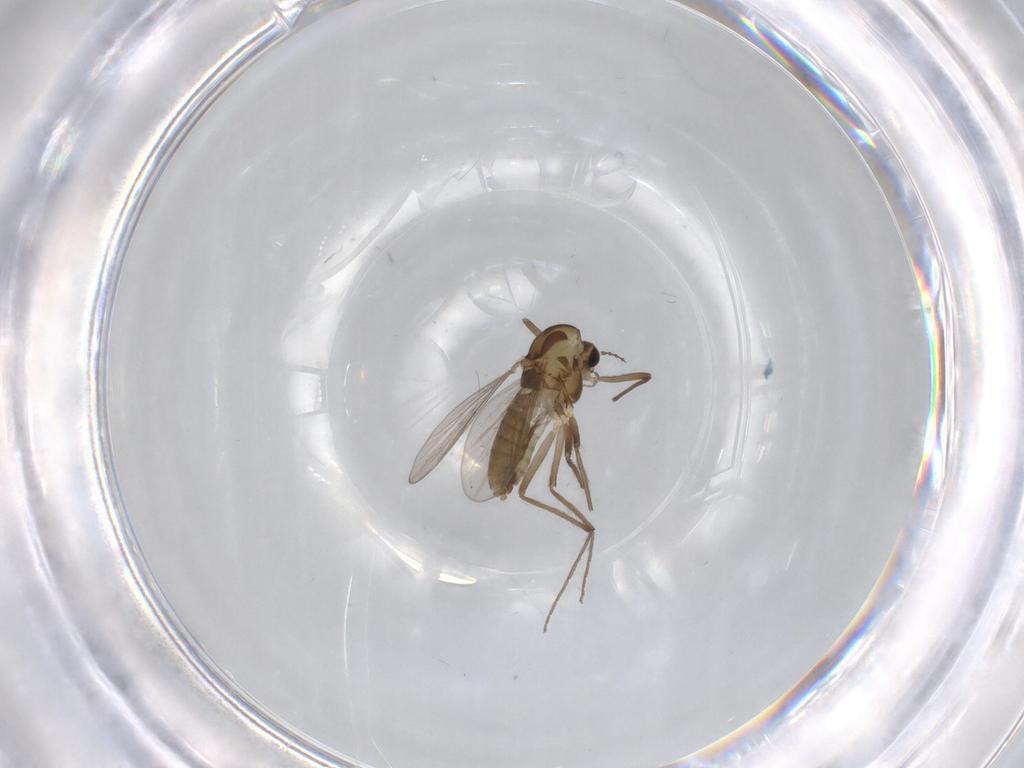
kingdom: Animalia
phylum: Arthropoda
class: Insecta
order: Diptera
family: Chironomidae
